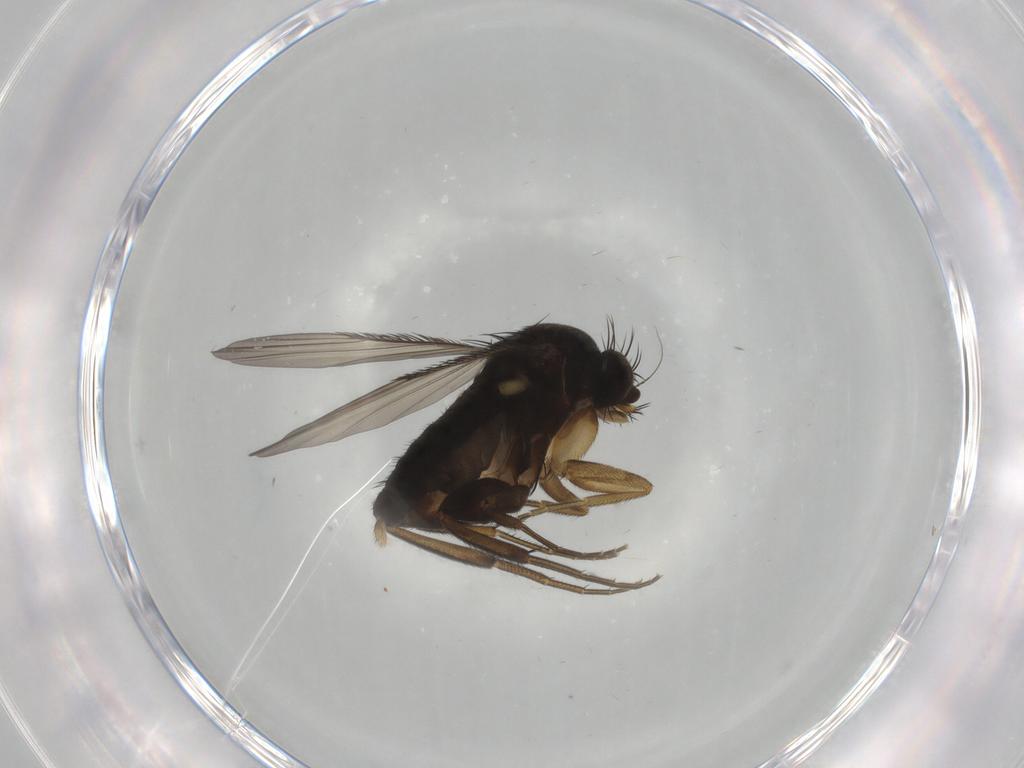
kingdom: Animalia
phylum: Arthropoda
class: Insecta
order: Diptera
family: Phoridae
